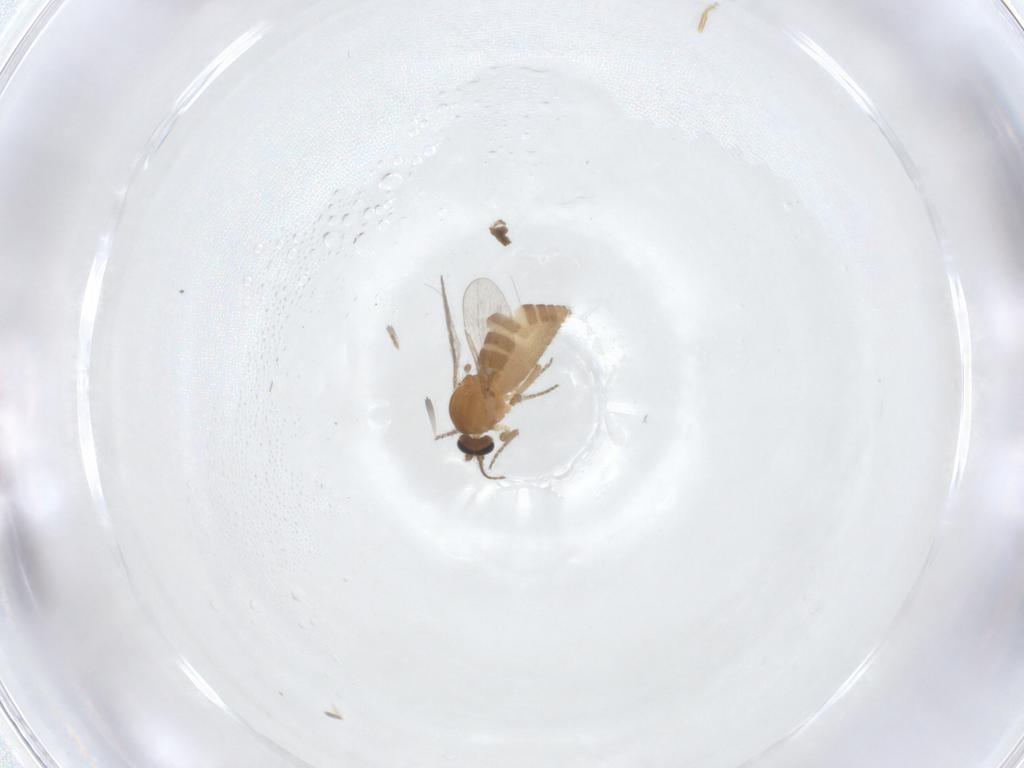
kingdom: Animalia
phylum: Arthropoda
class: Insecta
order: Diptera
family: Ceratopogonidae
